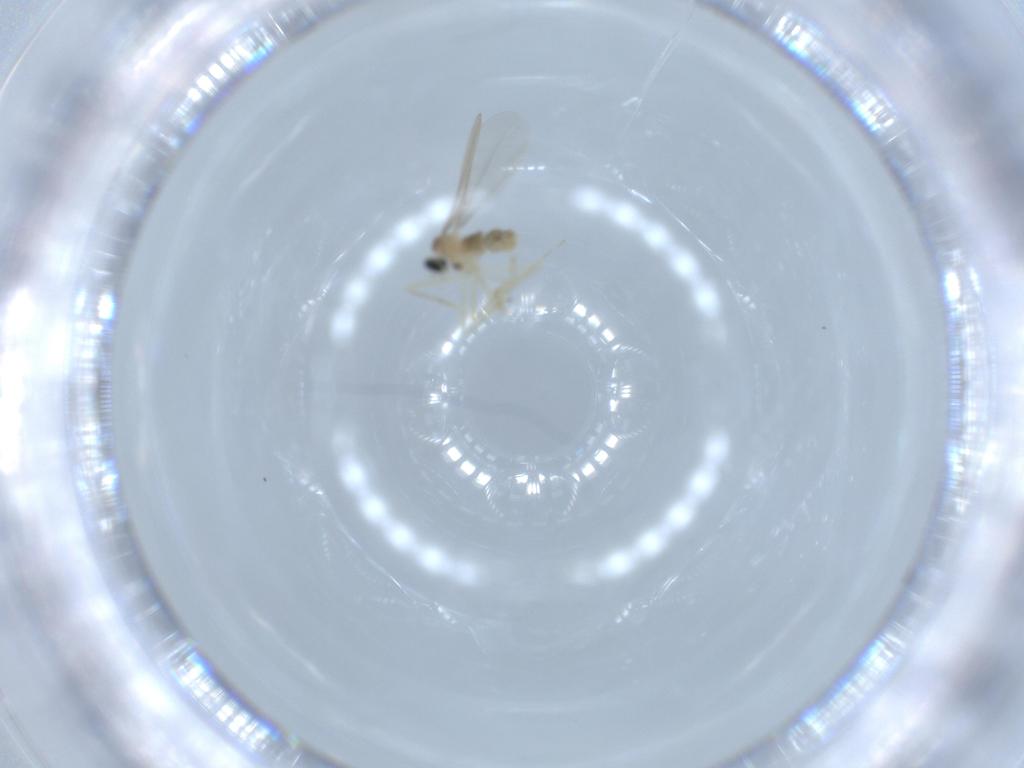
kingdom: Animalia
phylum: Arthropoda
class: Insecta
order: Diptera
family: Cecidomyiidae
